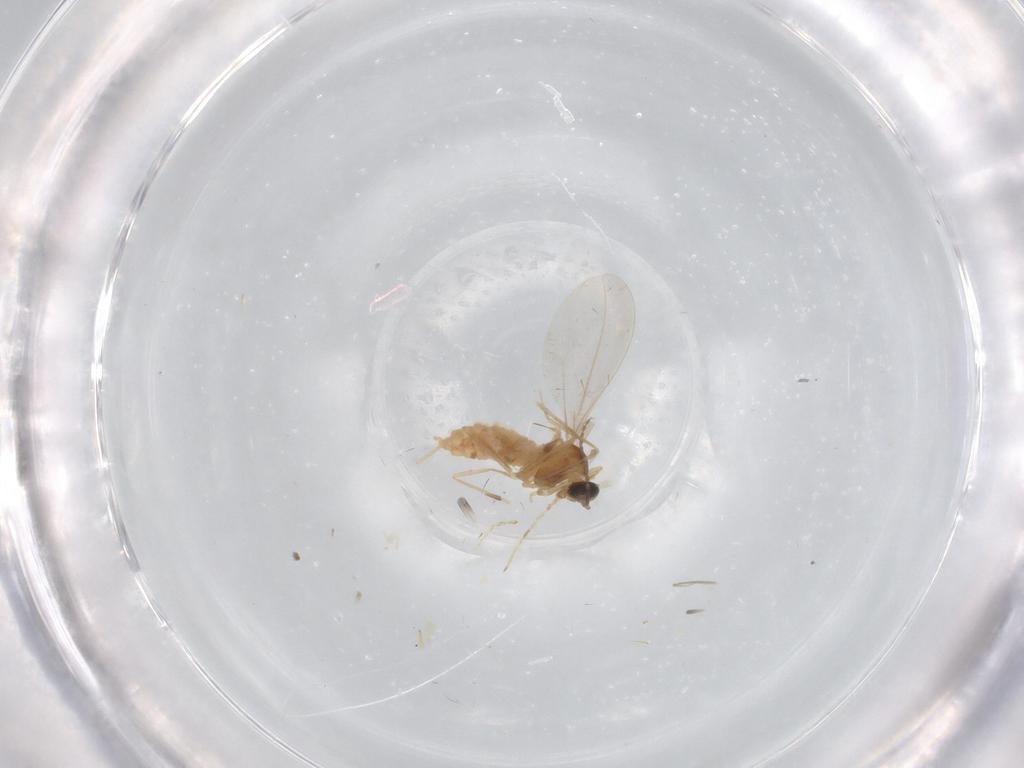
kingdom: Animalia
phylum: Arthropoda
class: Insecta
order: Diptera
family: Cecidomyiidae
